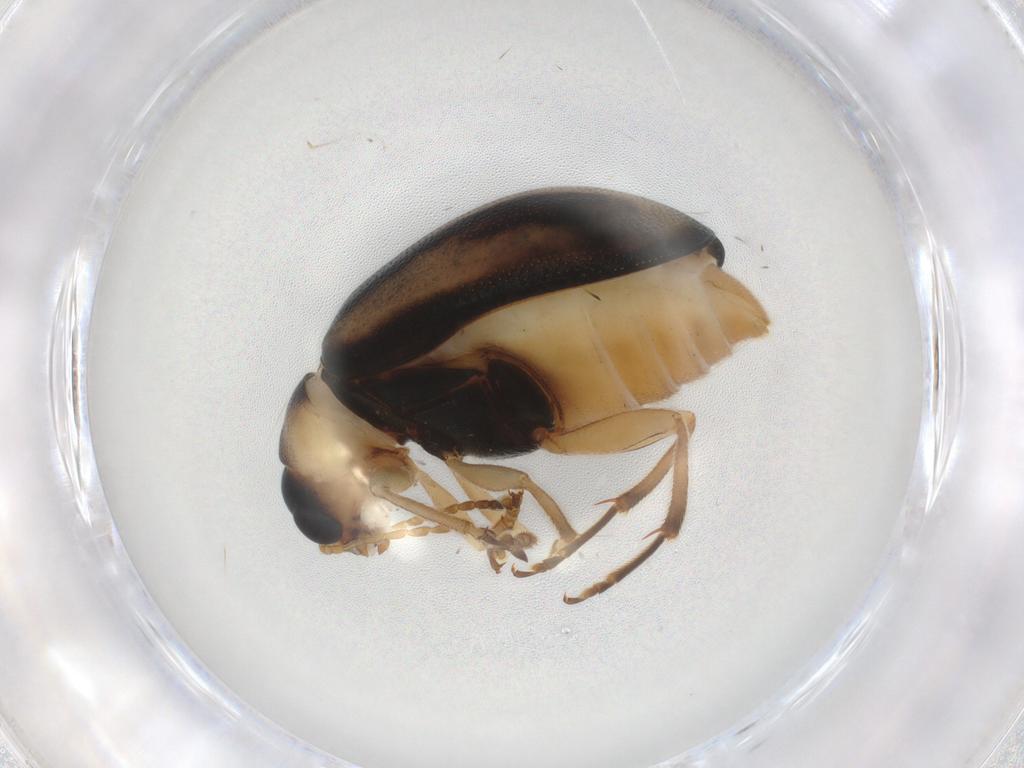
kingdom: Animalia
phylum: Arthropoda
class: Insecta
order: Coleoptera
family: Chrysomelidae
